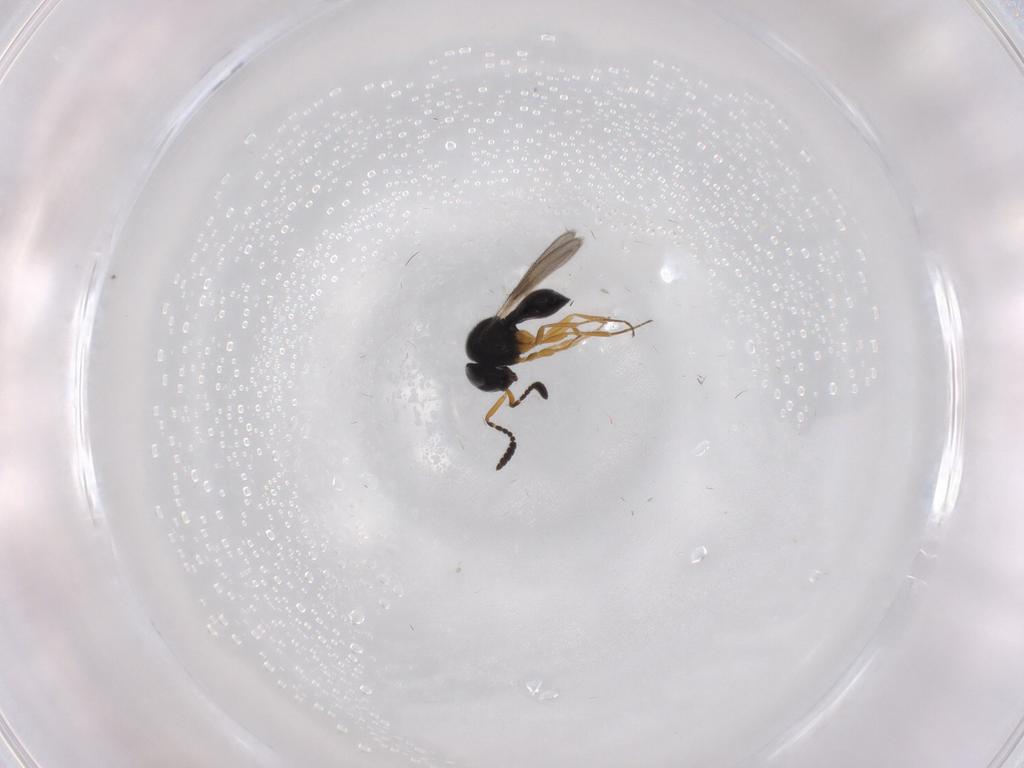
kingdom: Animalia
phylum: Arthropoda
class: Insecta
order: Hymenoptera
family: Scelionidae
